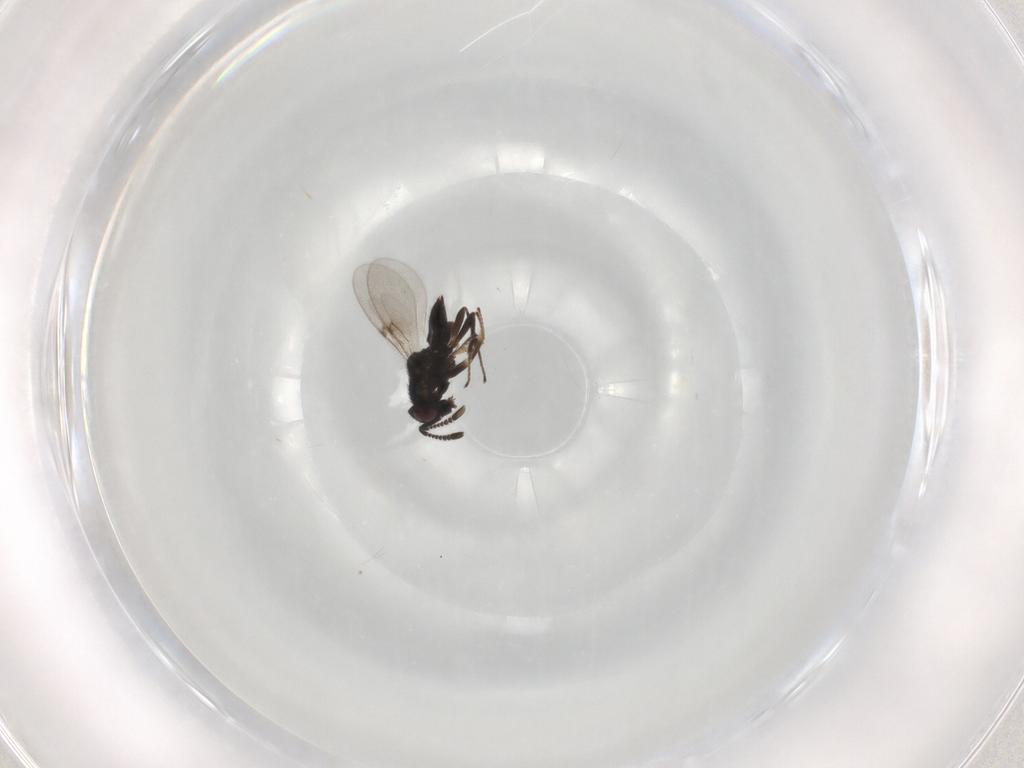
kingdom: Animalia
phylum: Arthropoda
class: Insecta
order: Hymenoptera
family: Encyrtidae
